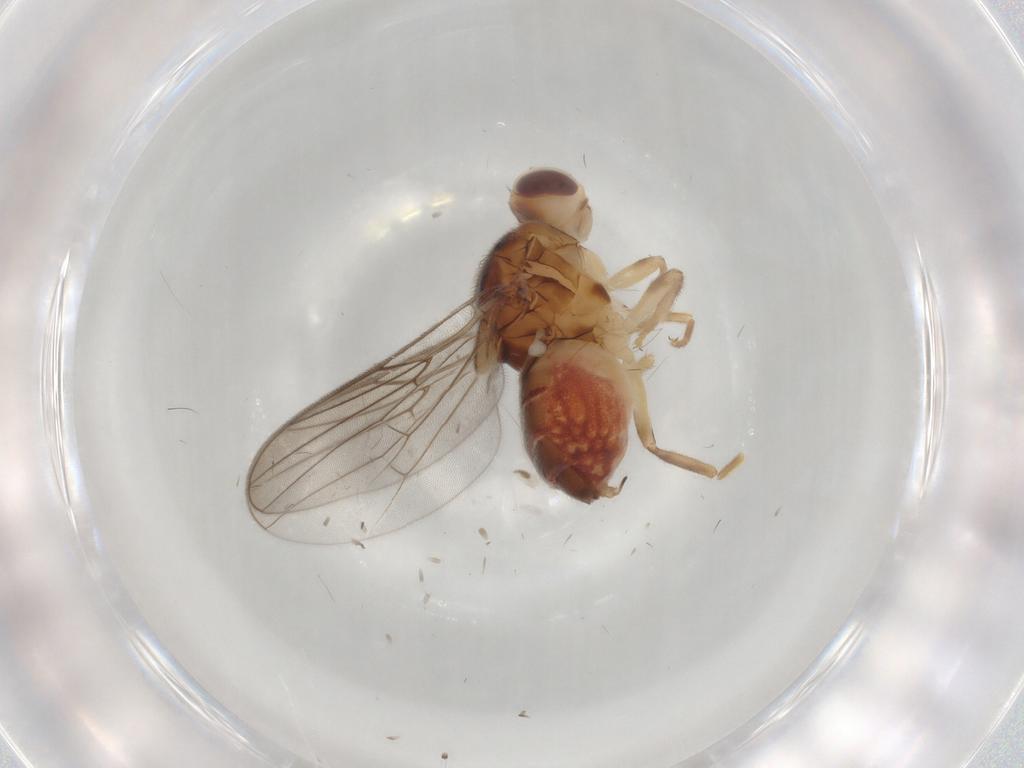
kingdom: Animalia
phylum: Arthropoda
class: Insecta
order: Diptera
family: Chloropidae
